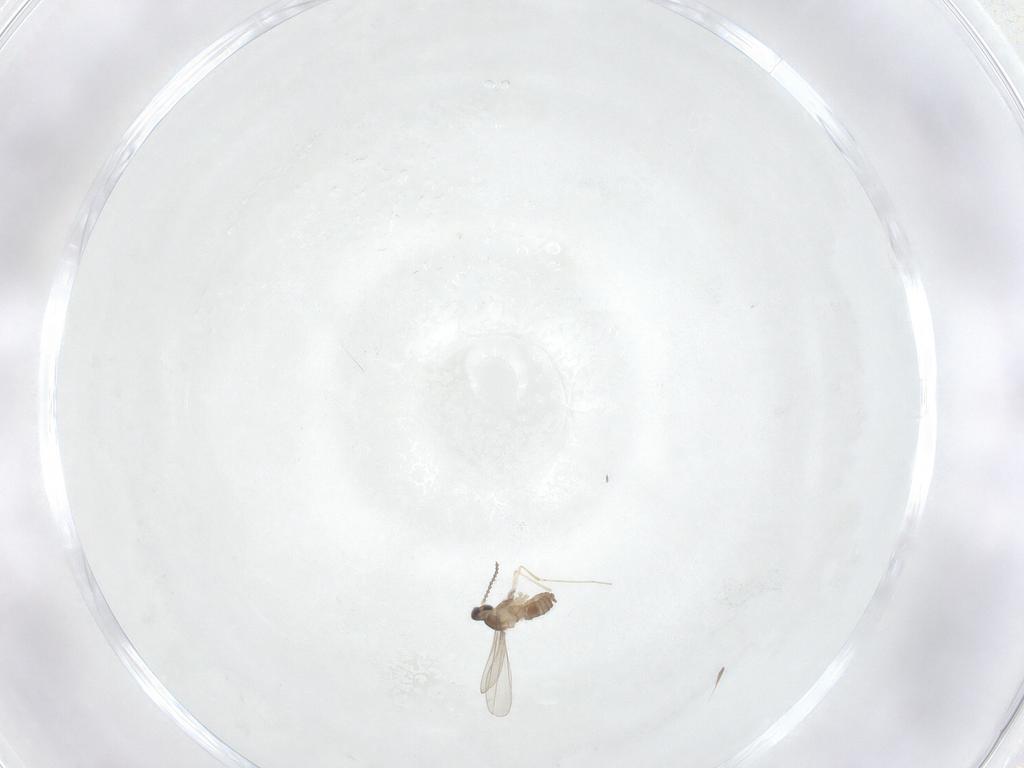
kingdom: Animalia
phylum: Arthropoda
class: Insecta
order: Diptera
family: Cecidomyiidae
